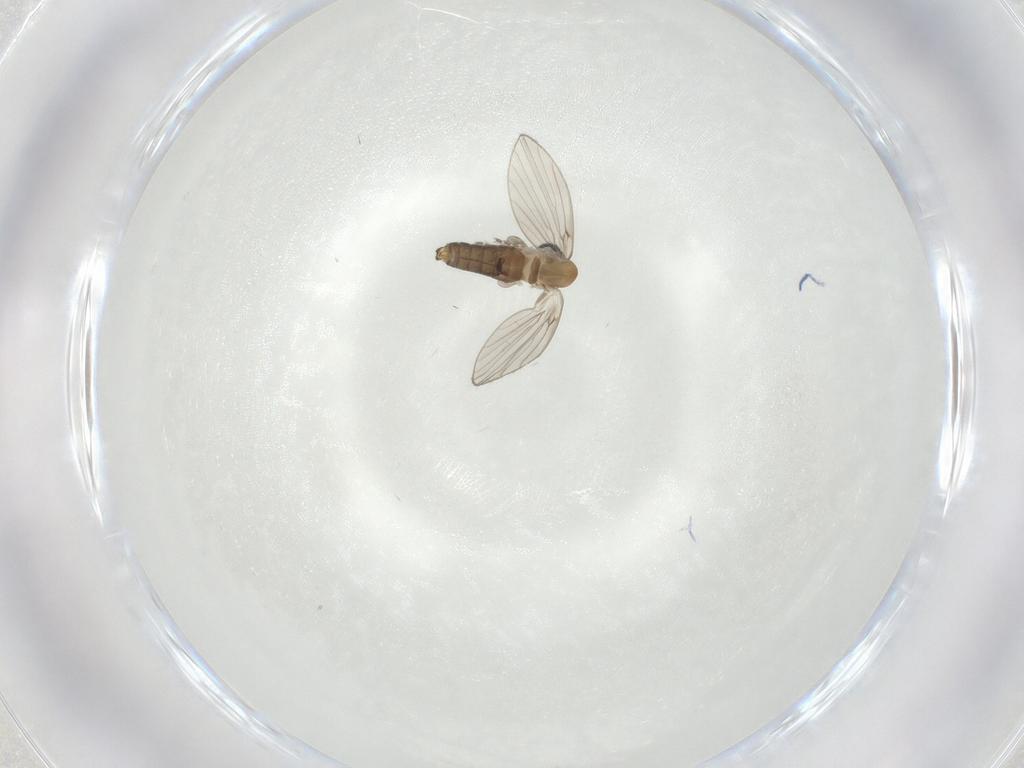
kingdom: Animalia
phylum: Arthropoda
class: Insecta
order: Diptera
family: Psychodidae
